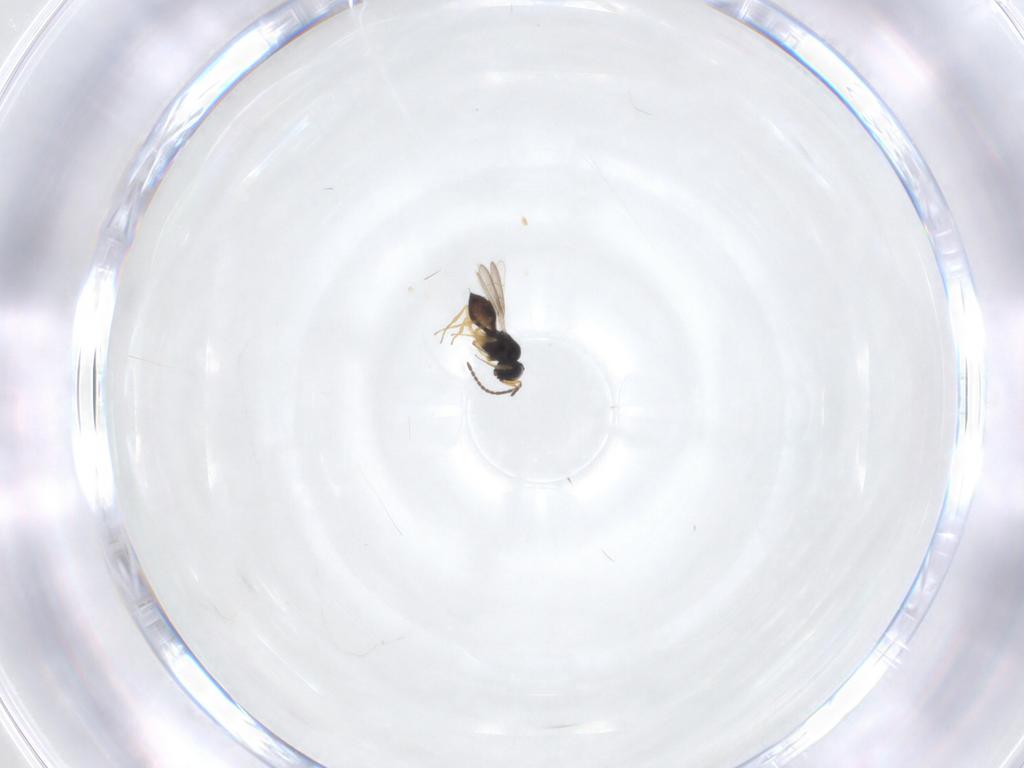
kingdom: Animalia
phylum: Arthropoda
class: Insecta
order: Hymenoptera
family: Scelionidae
